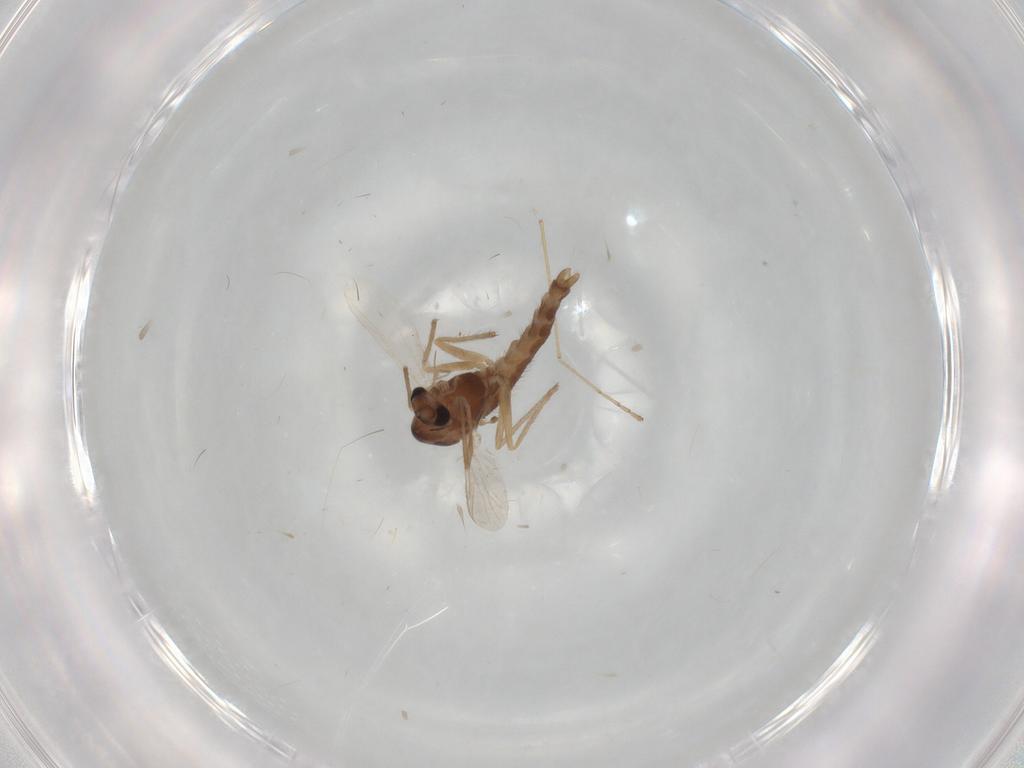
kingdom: Animalia
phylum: Arthropoda
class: Insecta
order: Diptera
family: Chironomidae
